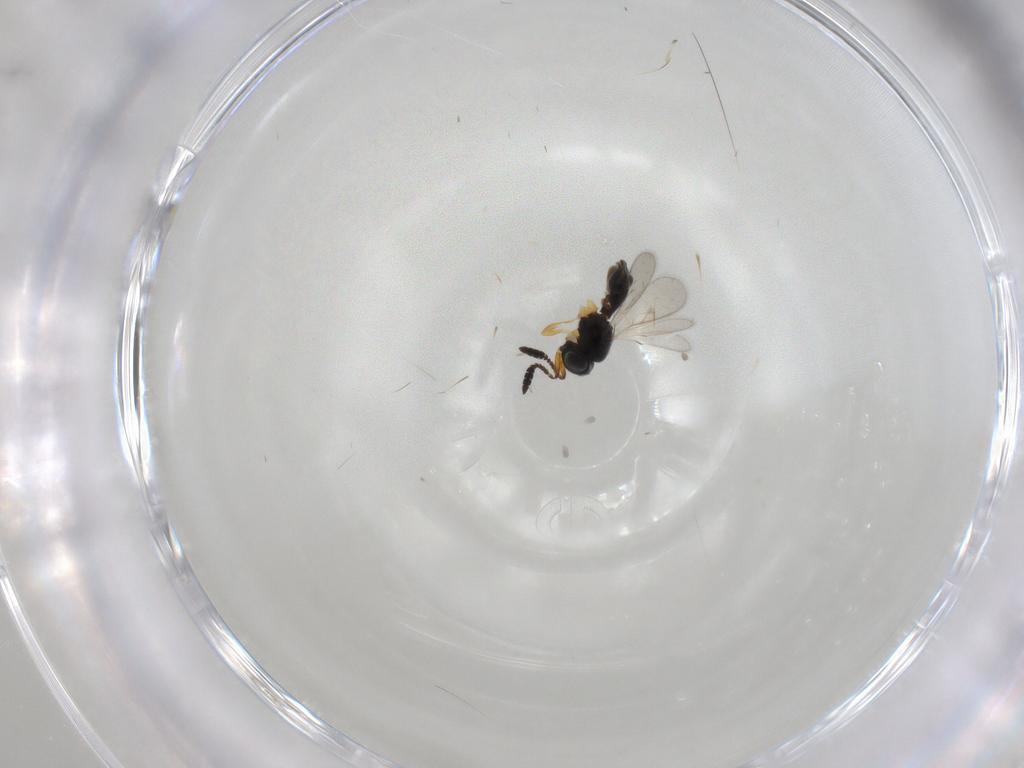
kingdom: Animalia
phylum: Arthropoda
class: Insecta
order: Hymenoptera
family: Scelionidae
